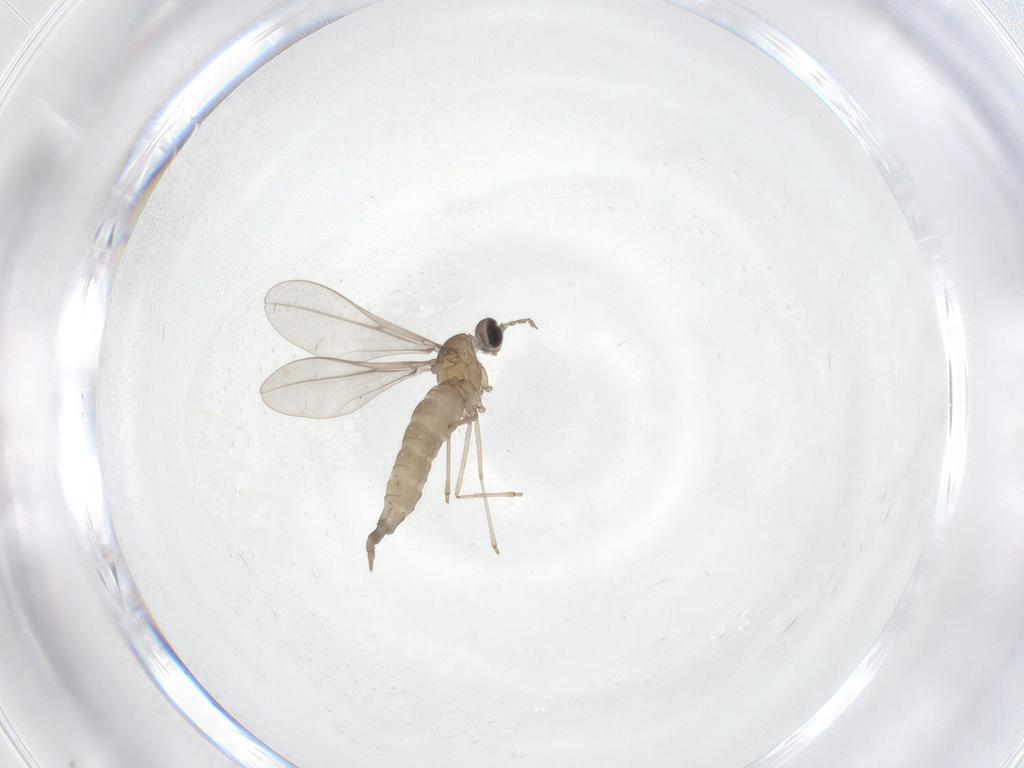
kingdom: Animalia
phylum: Arthropoda
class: Insecta
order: Diptera
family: Cecidomyiidae
